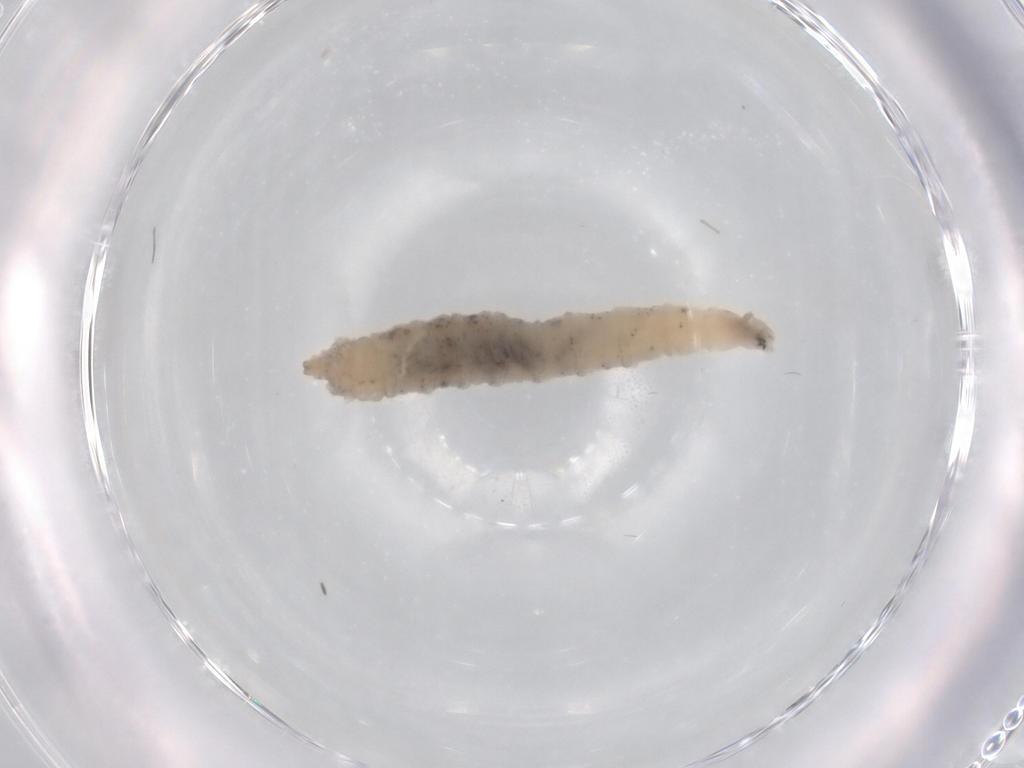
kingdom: Animalia
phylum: Arthropoda
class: Insecta
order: Diptera
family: Drosophilidae
